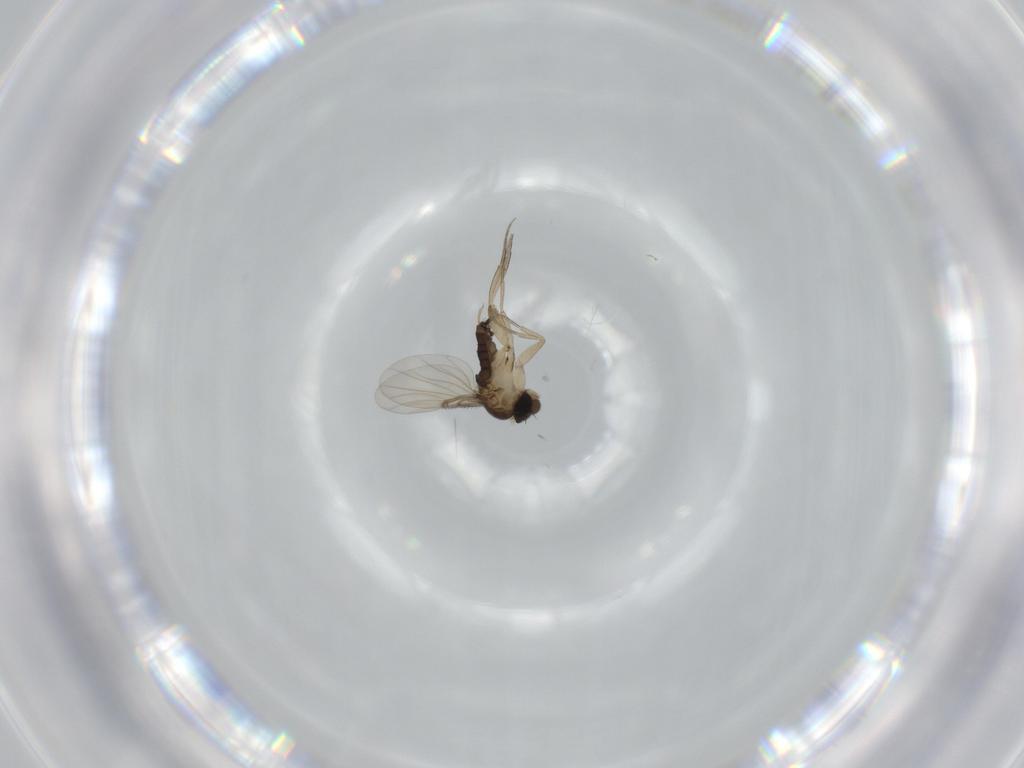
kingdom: Animalia
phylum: Arthropoda
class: Insecta
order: Diptera
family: Phoridae
